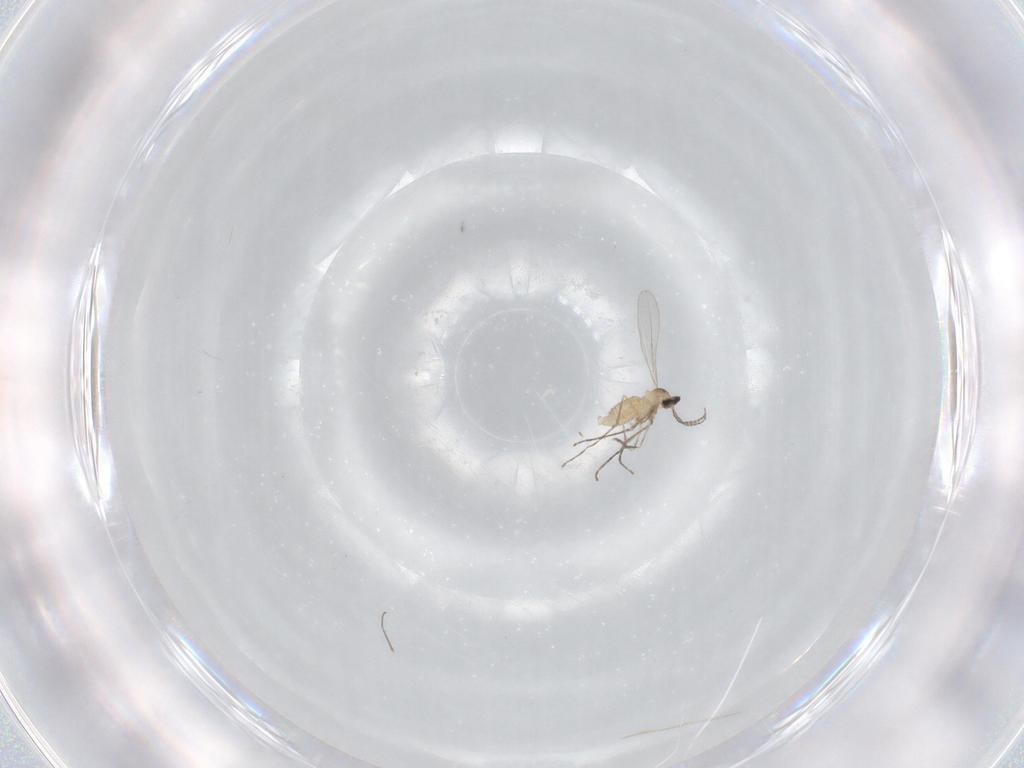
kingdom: Animalia
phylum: Arthropoda
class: Insecta
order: Diptera
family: Cecidomyiidae
